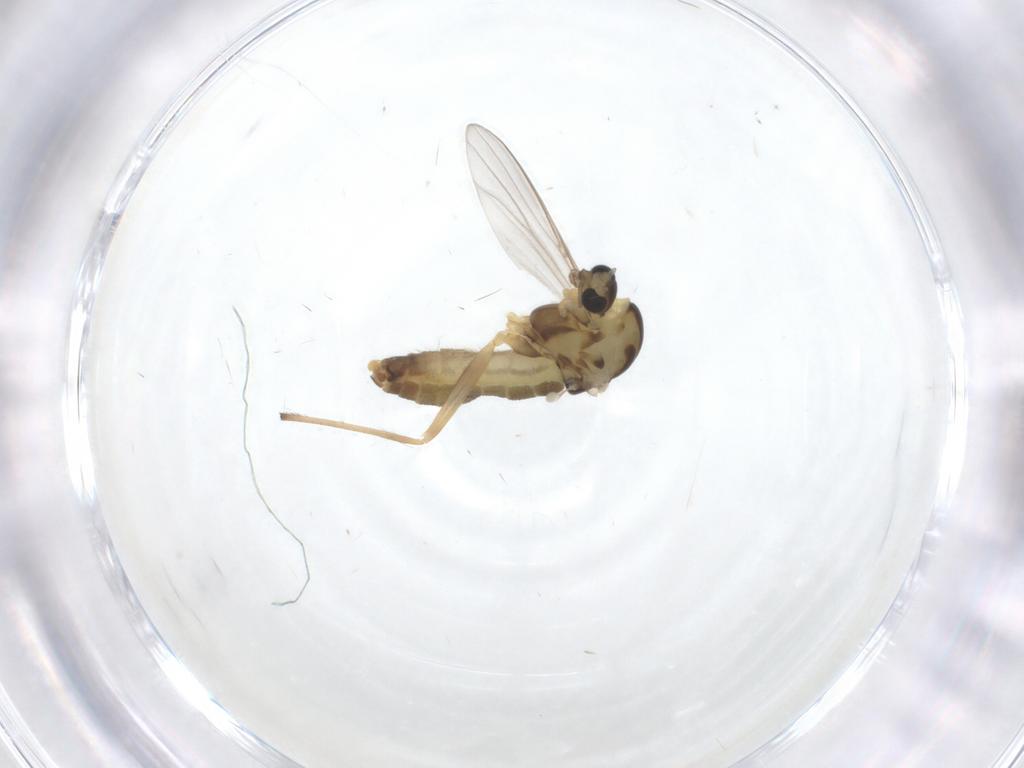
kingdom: Animalia
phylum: Arthropoda
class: Insecta
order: Diptera
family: Chironomidae
